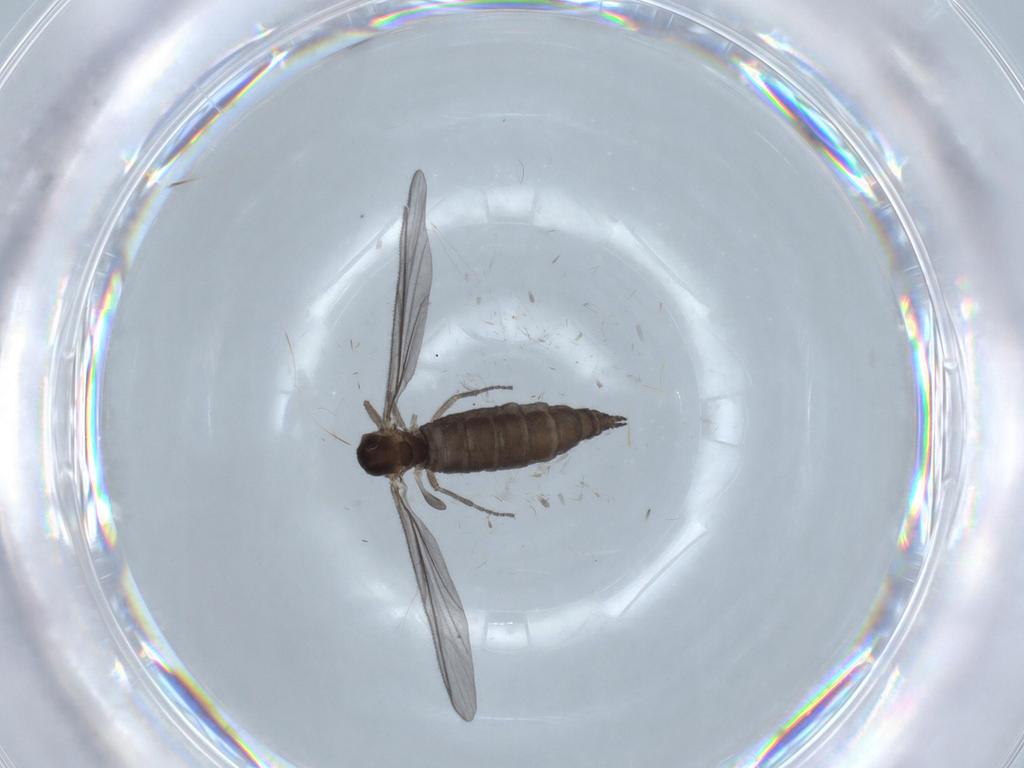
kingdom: Animalia
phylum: Arthropoda
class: Insecta
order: Diptera
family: Sciaridae
